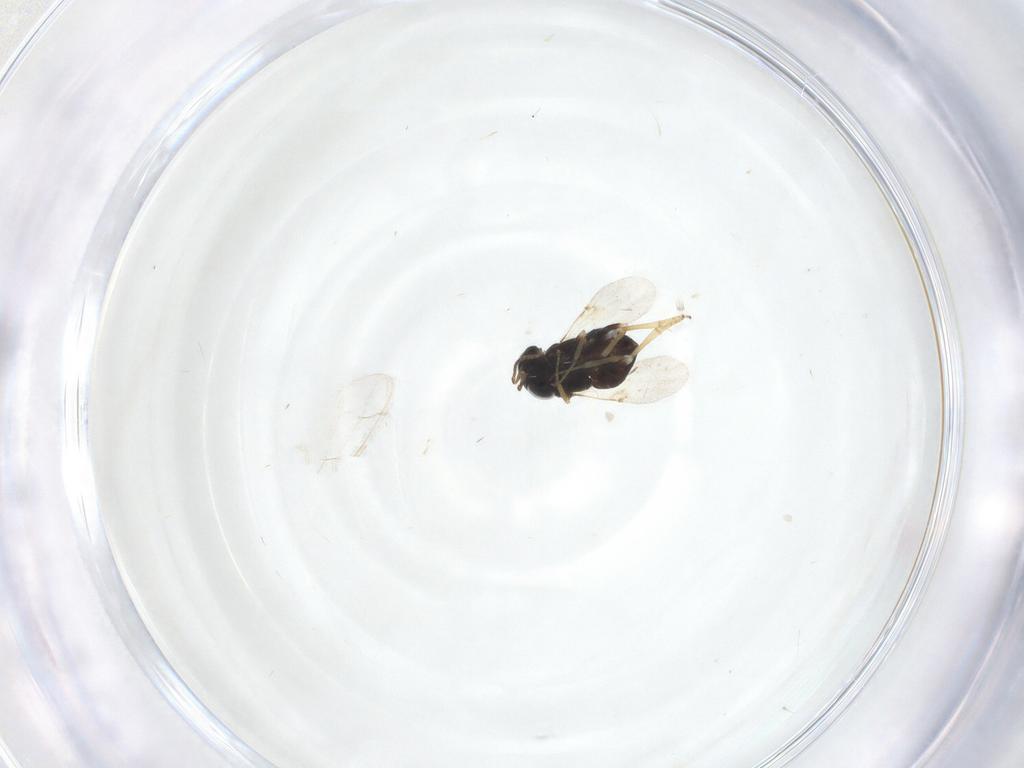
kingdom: Animalia
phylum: Arthropoda
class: Insecta
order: Hymenoptera
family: Encyrtidae
